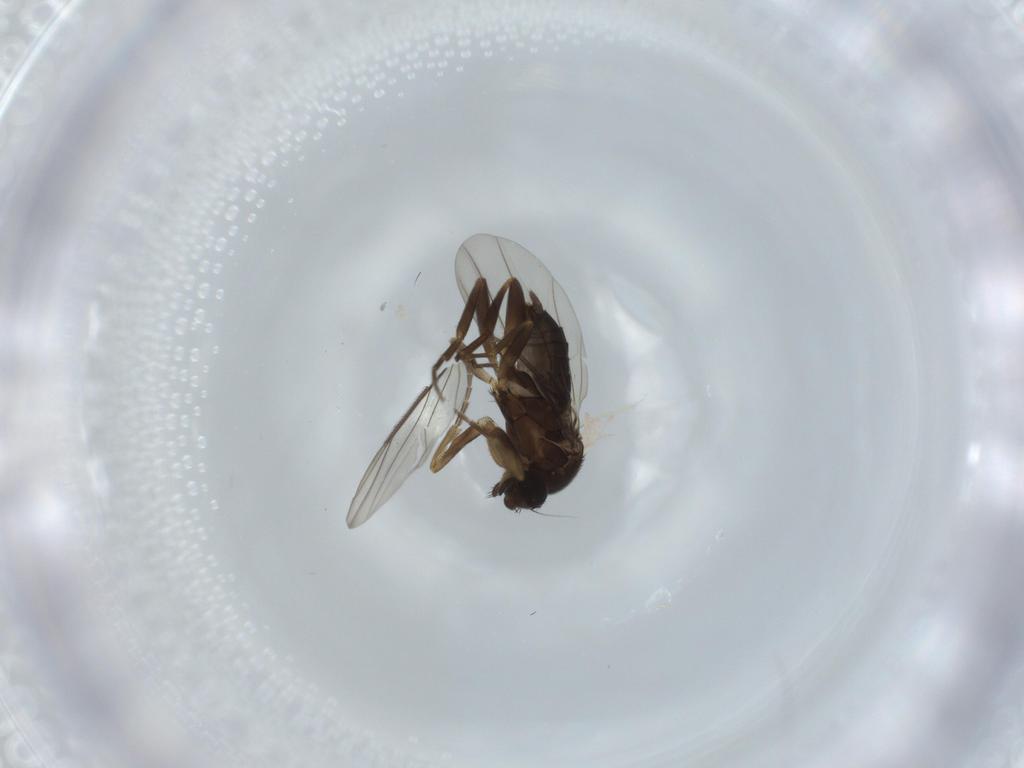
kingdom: Animalia
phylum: Arthropoda
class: Insecta
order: Diptera
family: Phoridae
